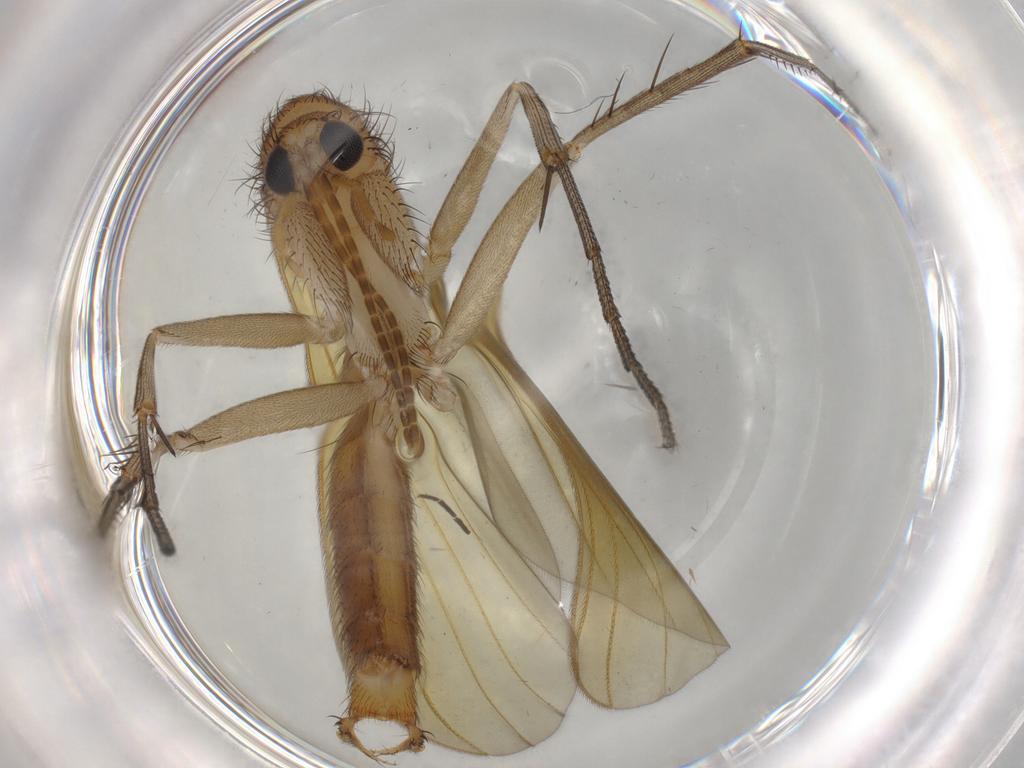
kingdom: Animalia
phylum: Arthropoda
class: Insecta
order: Diptera
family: Mycetophilidae
